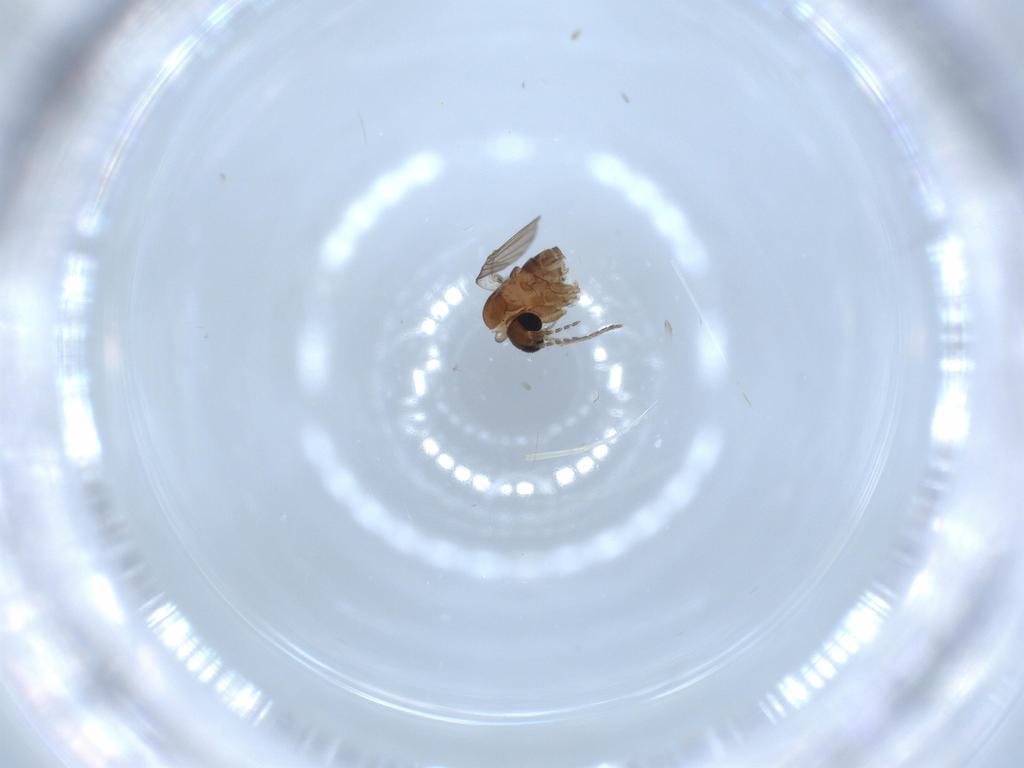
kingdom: Animalia
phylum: Arthropoda
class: Insecta
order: Diptera
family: Psychodidae
